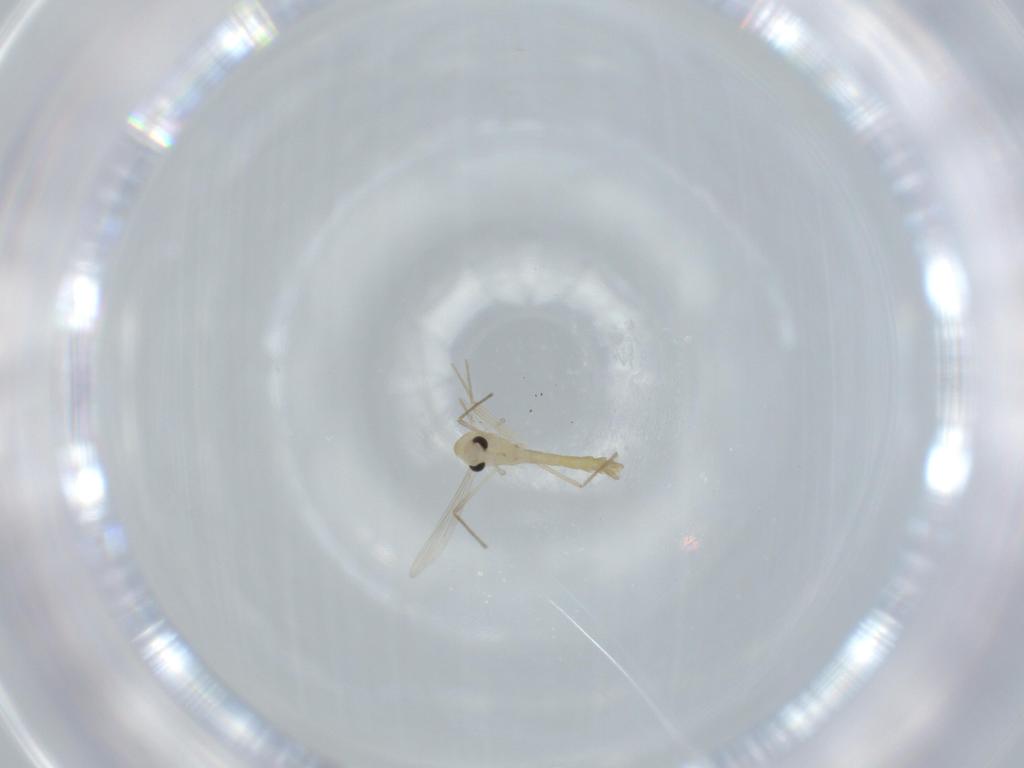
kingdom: Animalia
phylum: Arthropoda
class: Insecta
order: Diptera
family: Chironomidae
